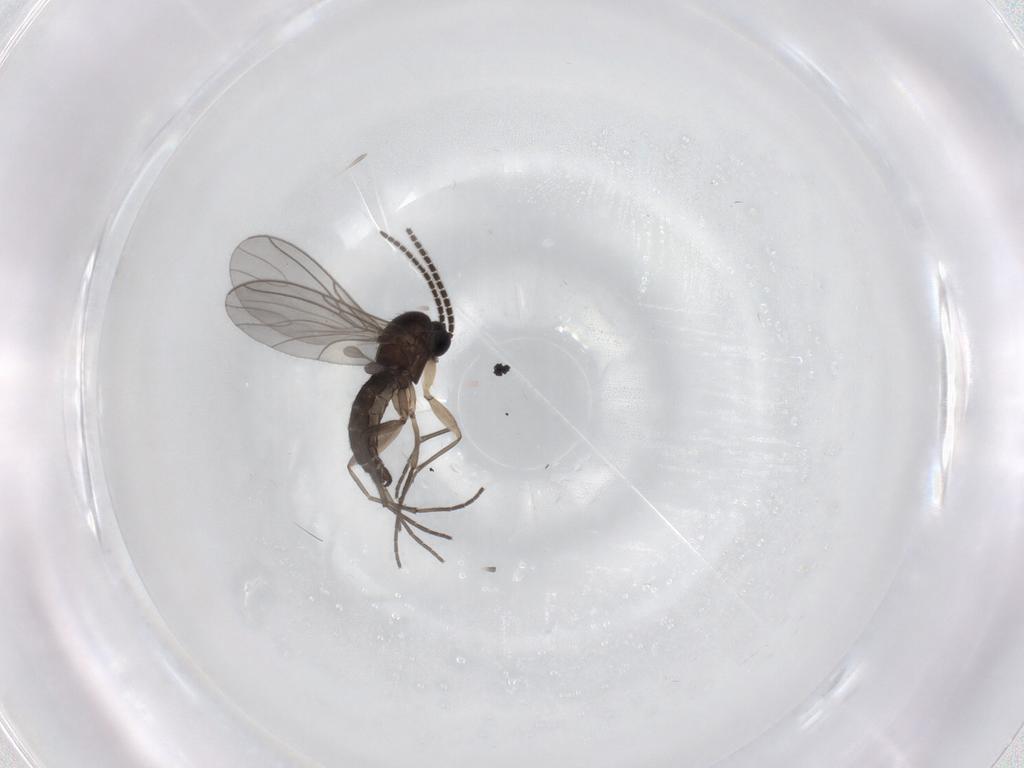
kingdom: Animalia
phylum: Arthropoda
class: Insecta
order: Diptera
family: Sciaridae
